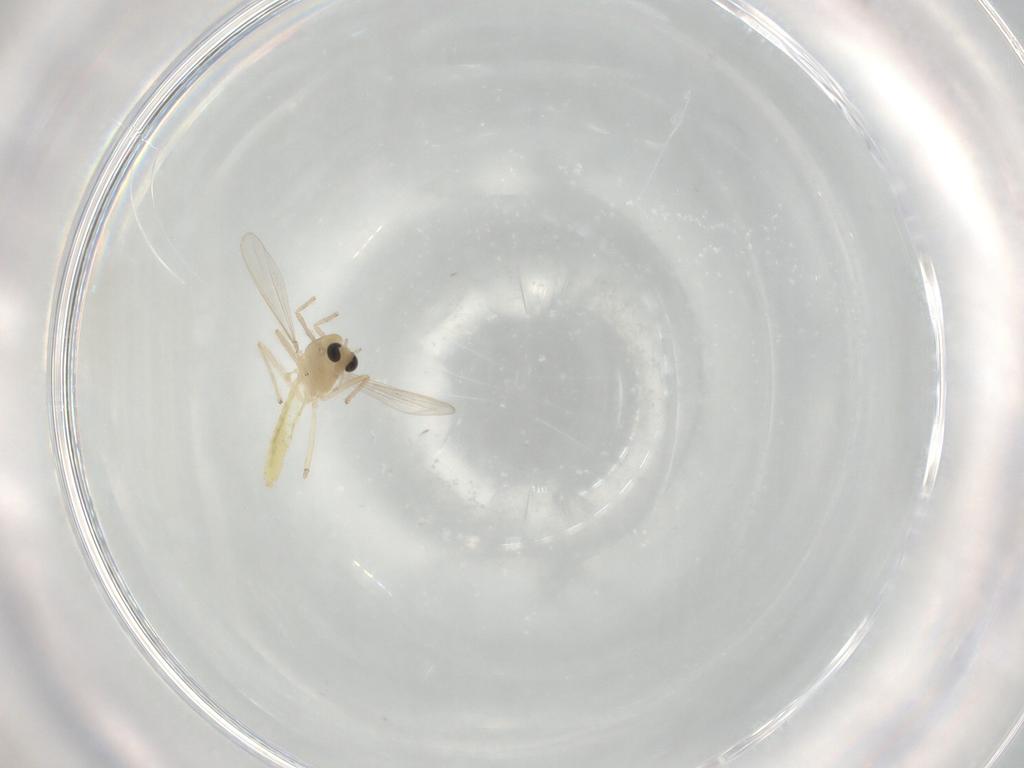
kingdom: Animalia
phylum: Arthropoda
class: Insecta
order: Diptera
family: Chironomidae
